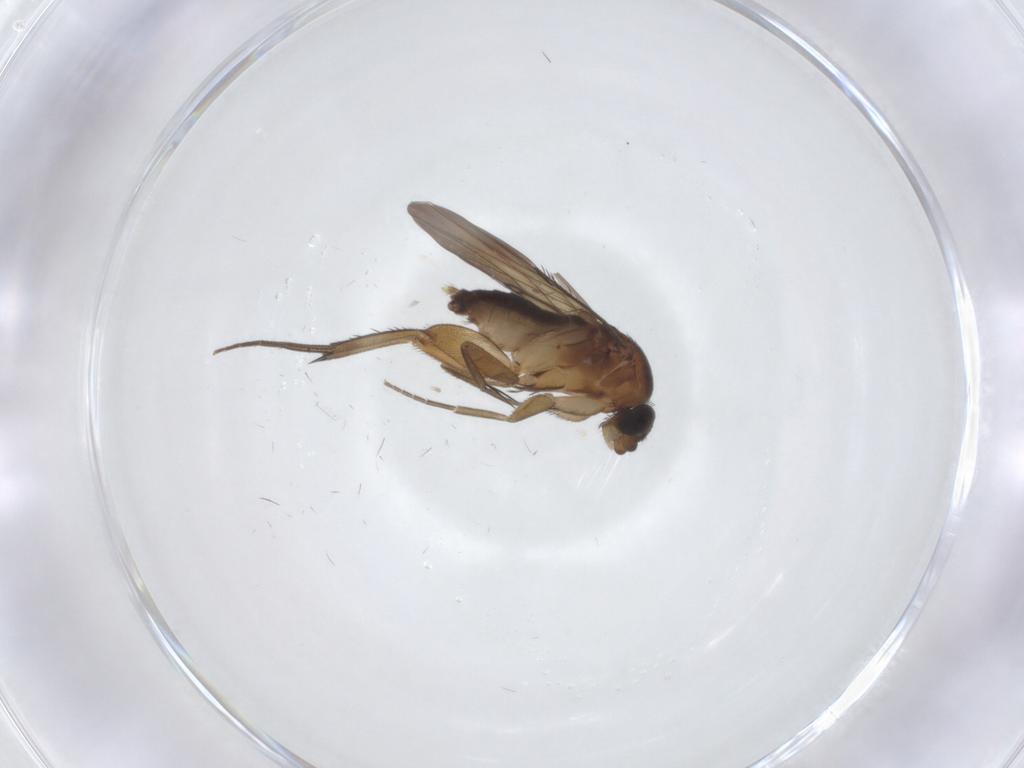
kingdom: Animalia
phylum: Arthropoda
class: Insecta
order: Diptera
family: Phoridae
